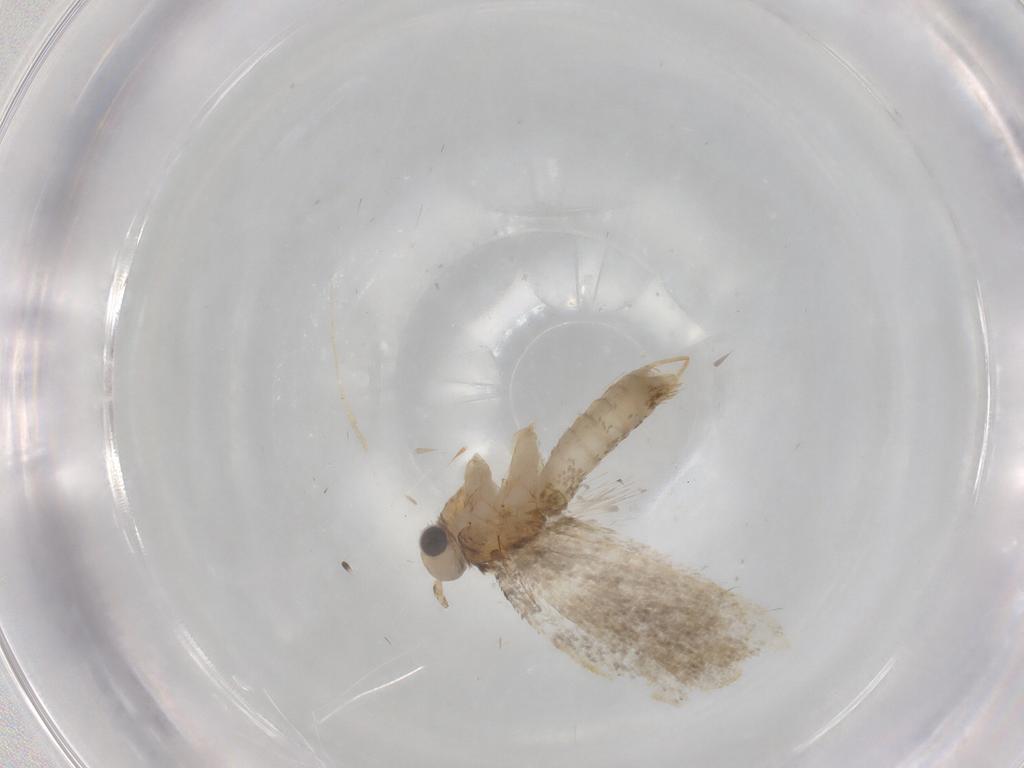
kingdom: Animalia
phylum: Arthropoda
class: Insecta
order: Lepidoptera
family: Psychidae
